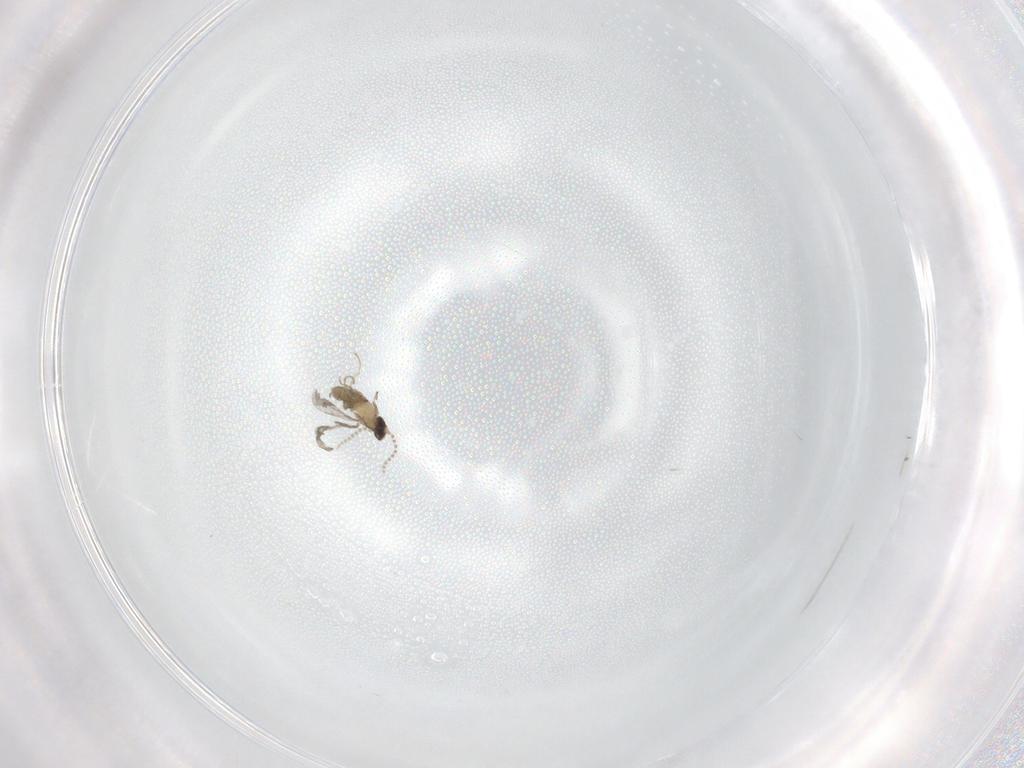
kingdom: Animalia
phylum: Arthropoda
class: Insecta
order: Diptera
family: Cecidomyiidae
